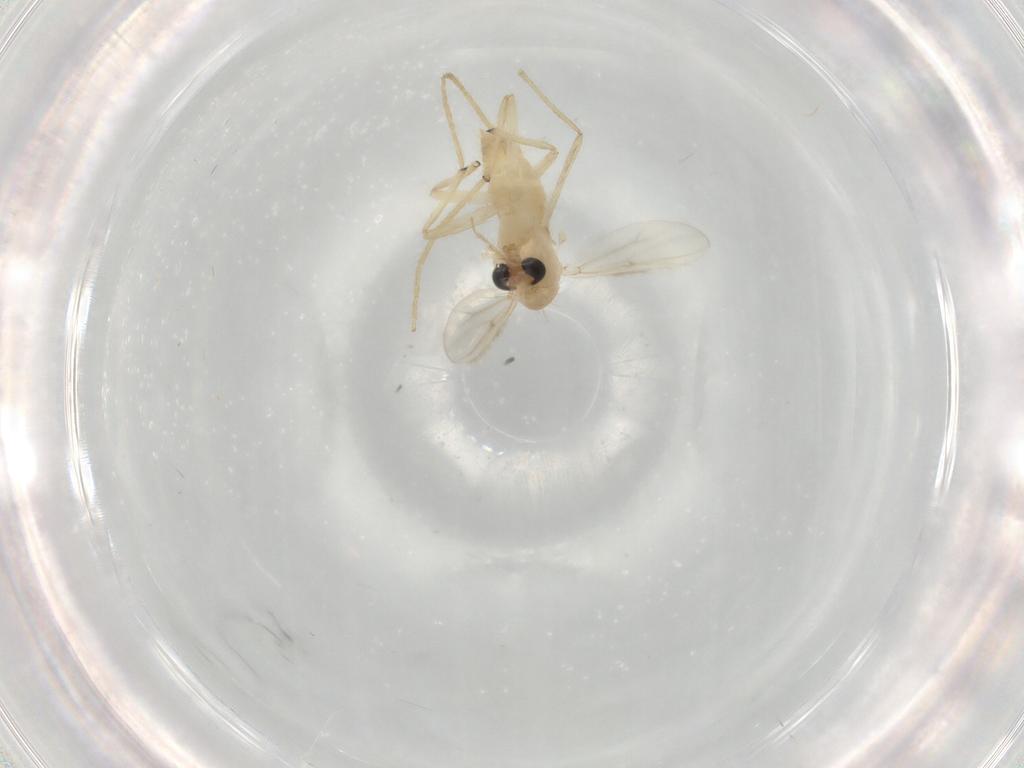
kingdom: Animalia
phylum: Arthropoda
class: Insecta
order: Diptera
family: Chironomidae
